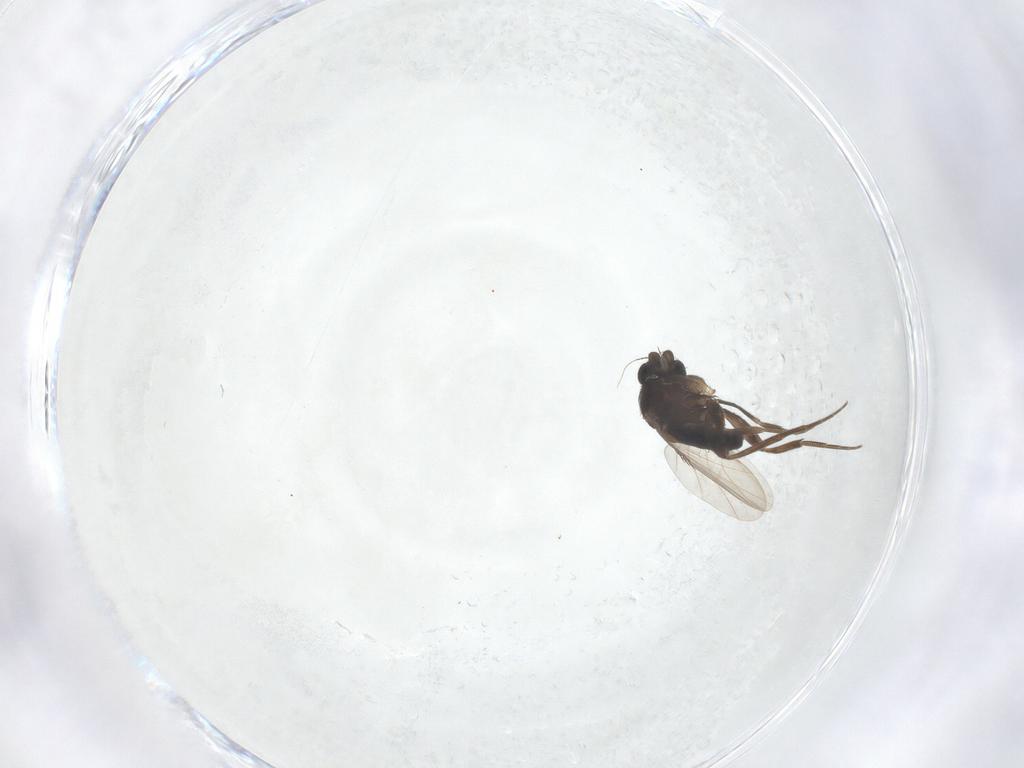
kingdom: Animalia
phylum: Arthropoda
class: Insecta
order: Diptera
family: Phoridae
